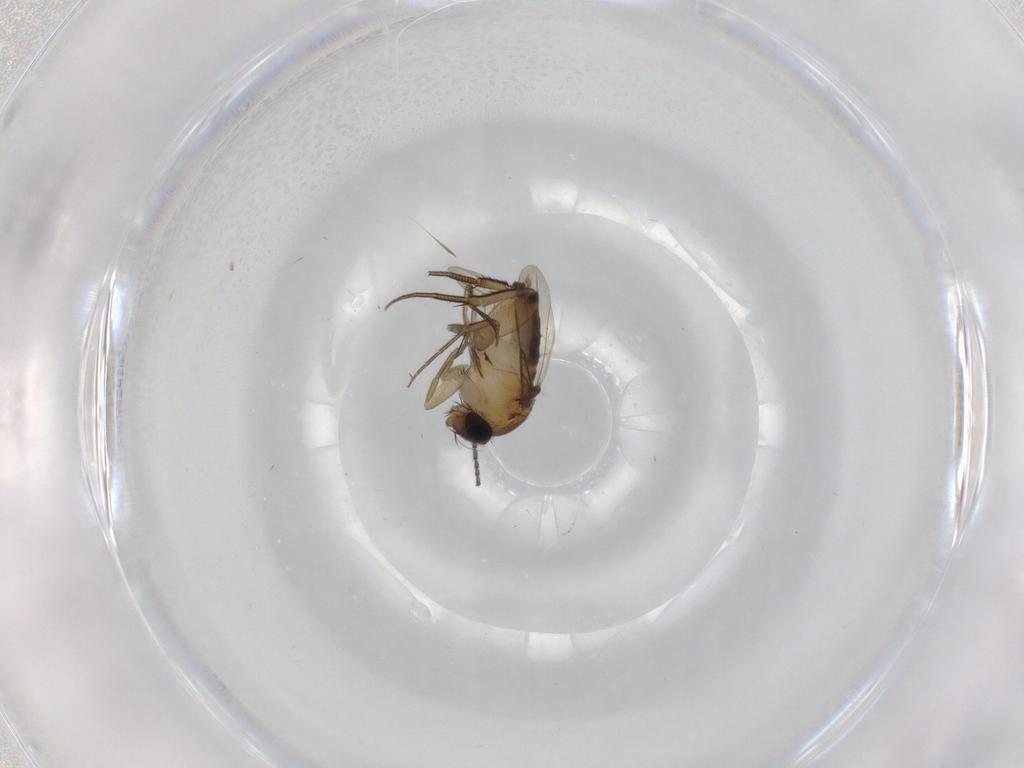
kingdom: Animalia
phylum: Arthropoda
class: Insecta
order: Diptera
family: Phoridae
